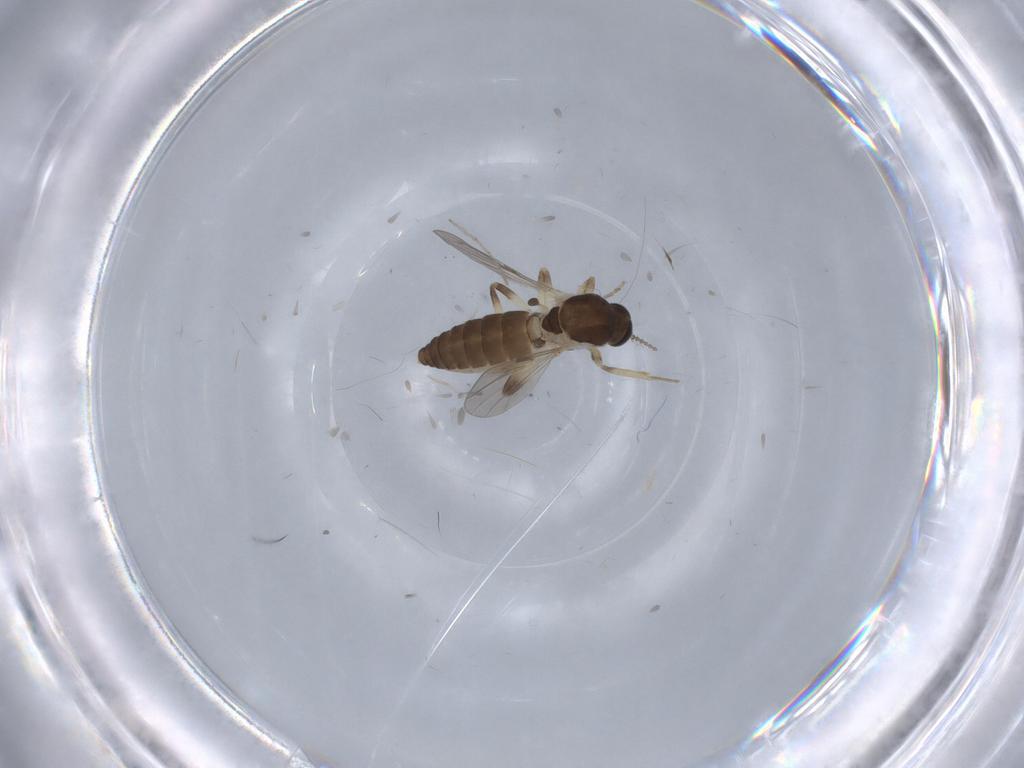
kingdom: Animalia
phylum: Arthropoda
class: Insecta
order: Diptera
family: Ceratopogonidae
